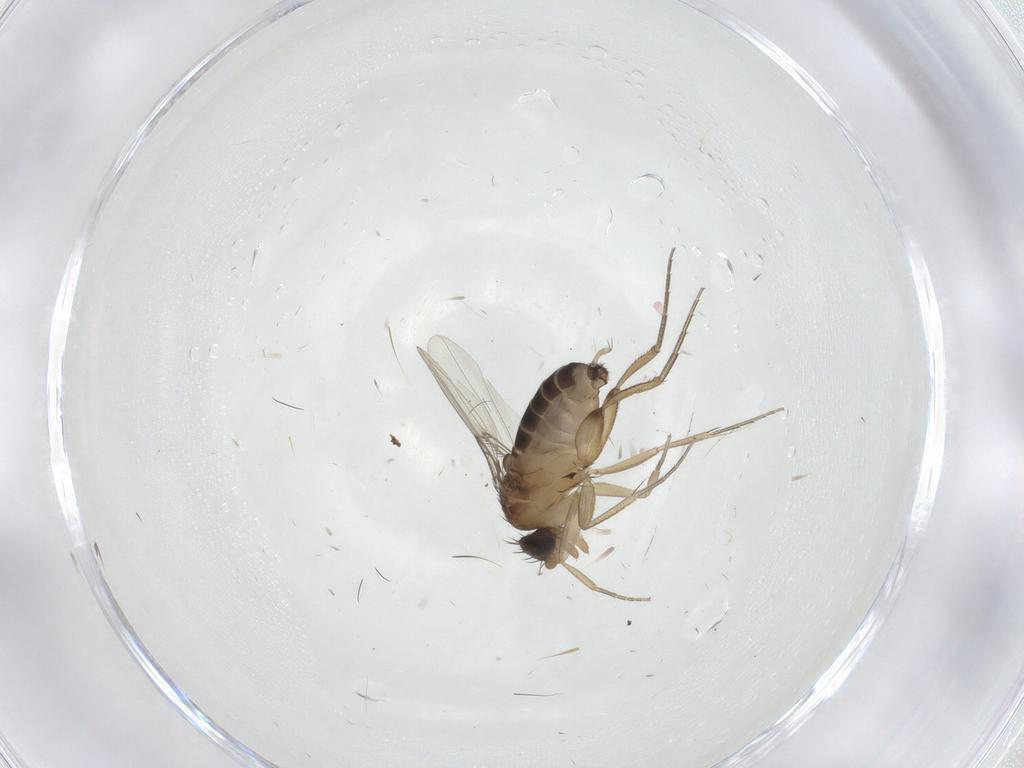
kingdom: Animalia
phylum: Arthropoda
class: Insecta
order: Diptera
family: Phoridae
